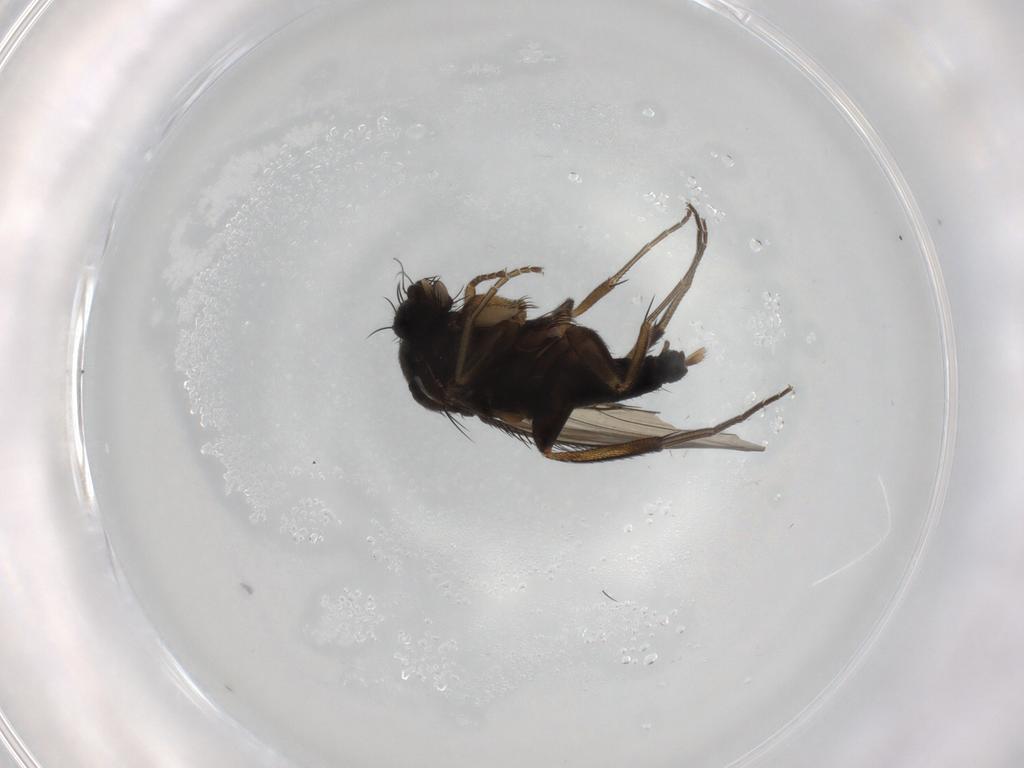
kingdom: Animalia
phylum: Arthropoda
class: Insecta
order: Diptera
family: Phoridae
